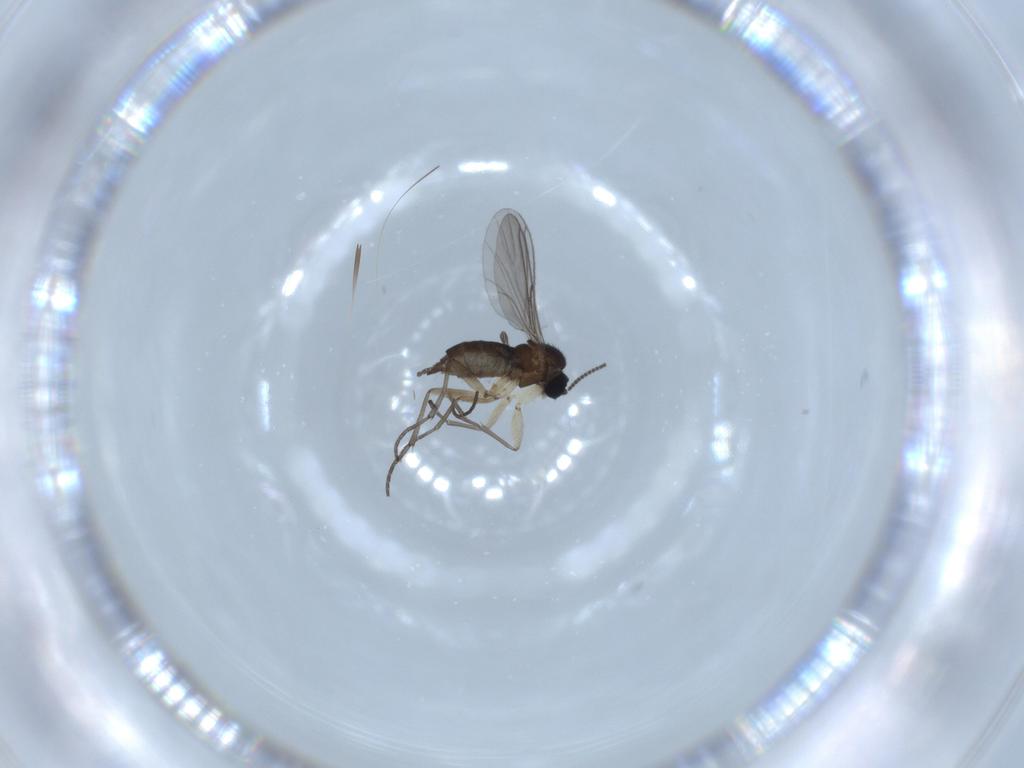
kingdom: Animalia
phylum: Arthropoda
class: Insecta
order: Diptera
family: Sciaridae
